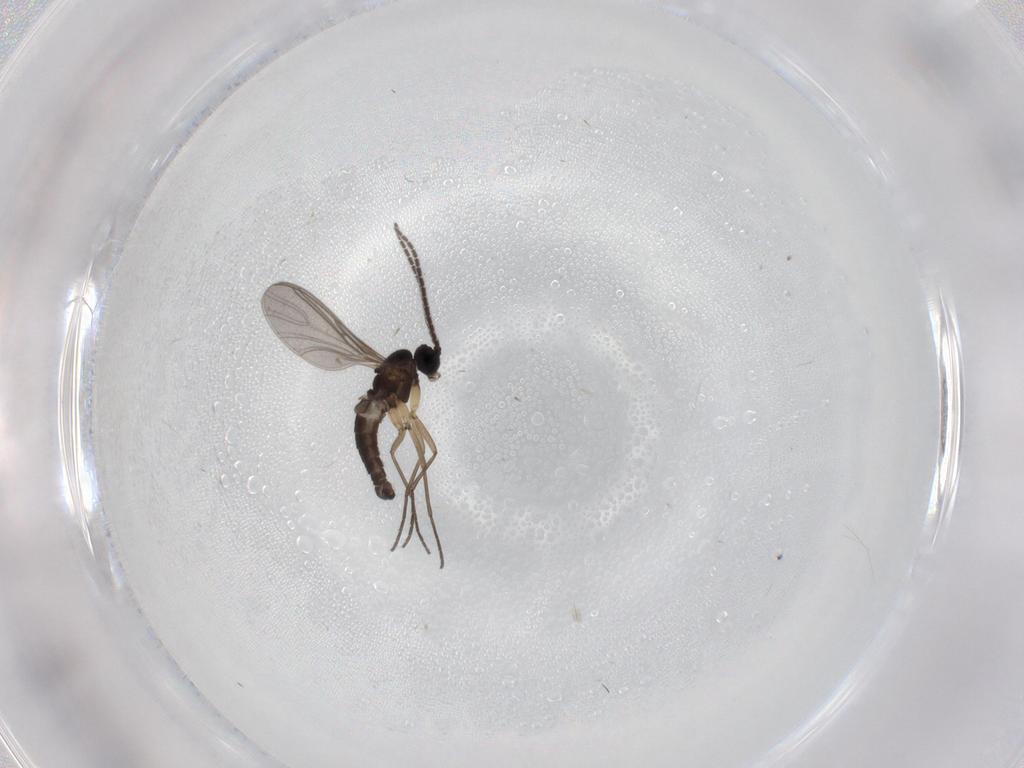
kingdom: Animalia
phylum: Arthropoda
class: Insecta
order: Diptera
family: Sciaridae
